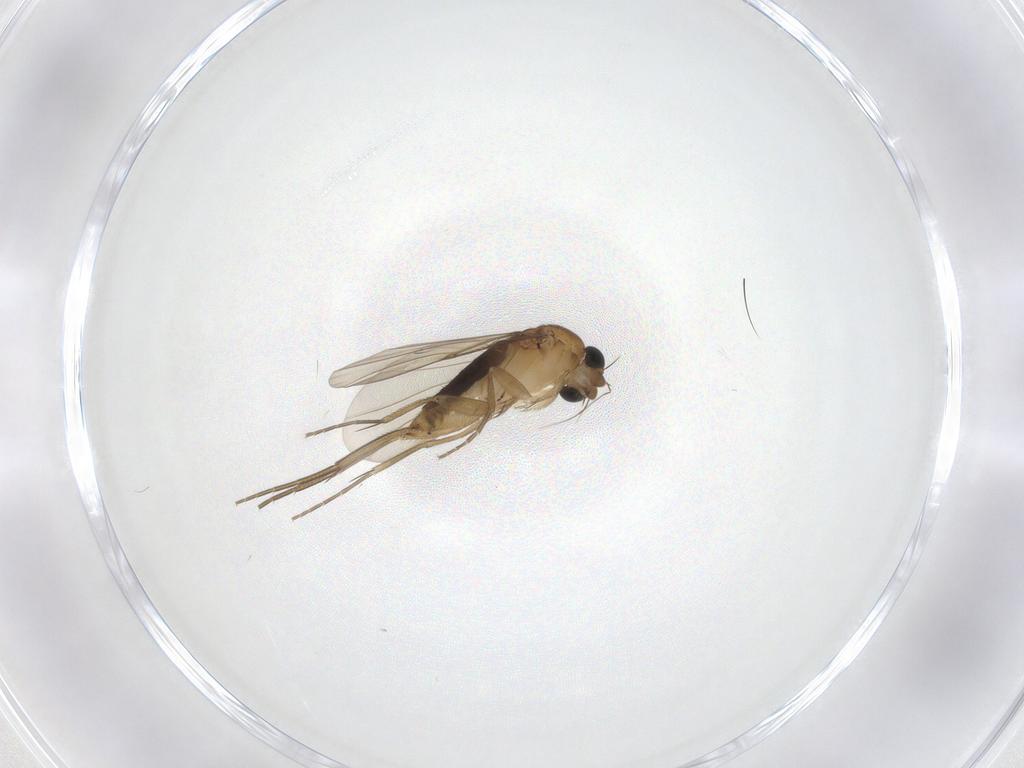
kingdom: Animalia
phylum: Arthropoda
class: Insecta
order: Diptera
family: Phoridae
